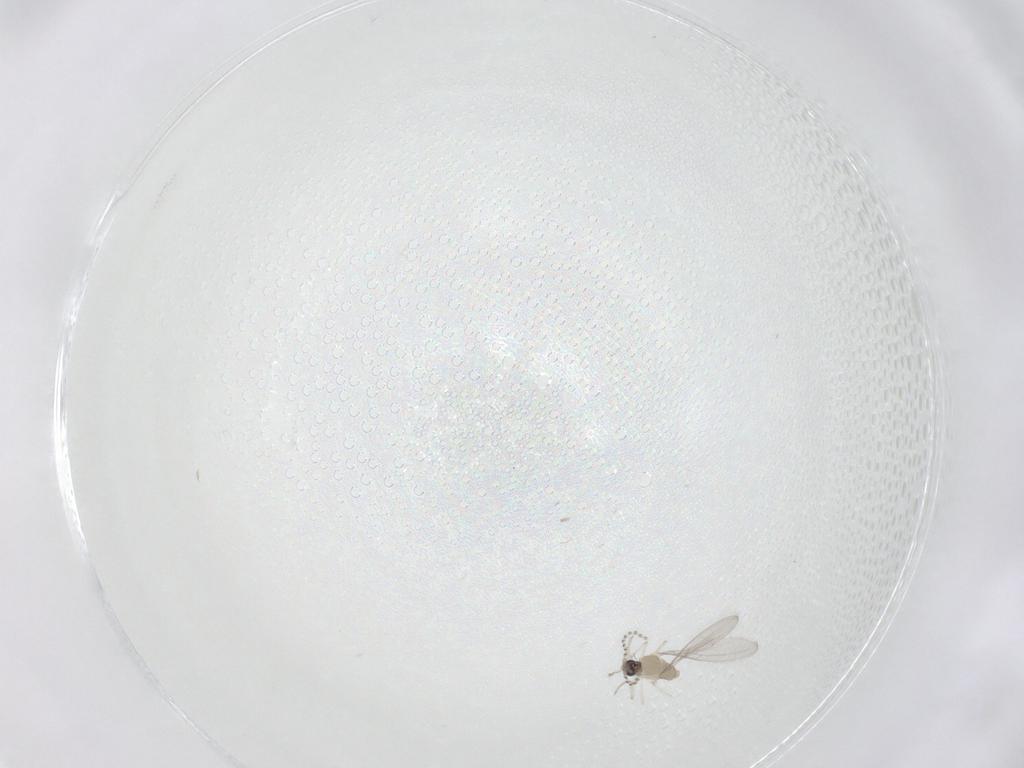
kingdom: Animalia
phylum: Arthropoda
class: Insecta
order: Diptera
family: Cecidomyiidae
